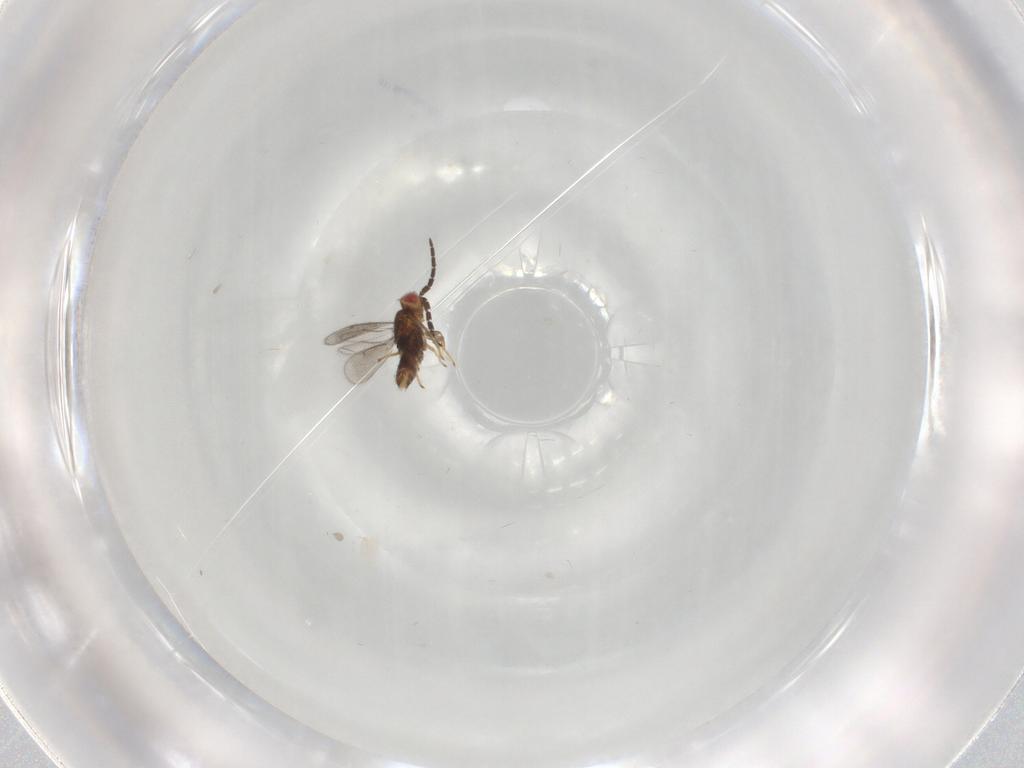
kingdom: Animalia
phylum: Arthropoda
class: Insecta
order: Hymenoptera
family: Aphelinidae
